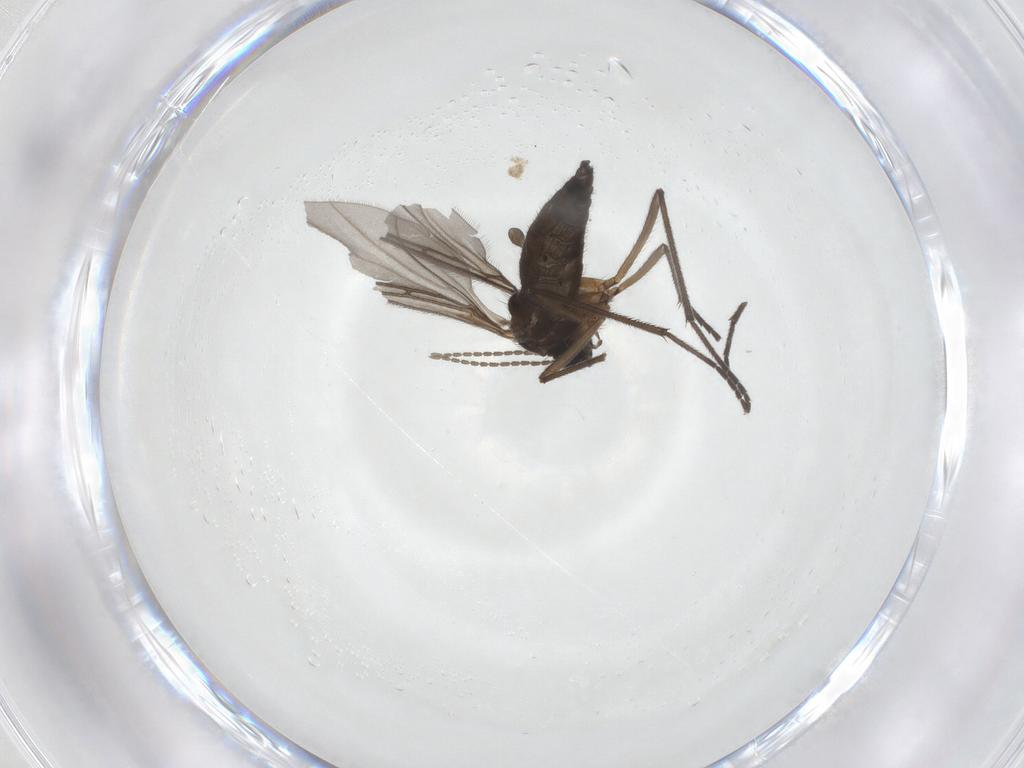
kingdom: Animalia
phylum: Arthropoda
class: Insecta
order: Diptera
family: Sciaridae
